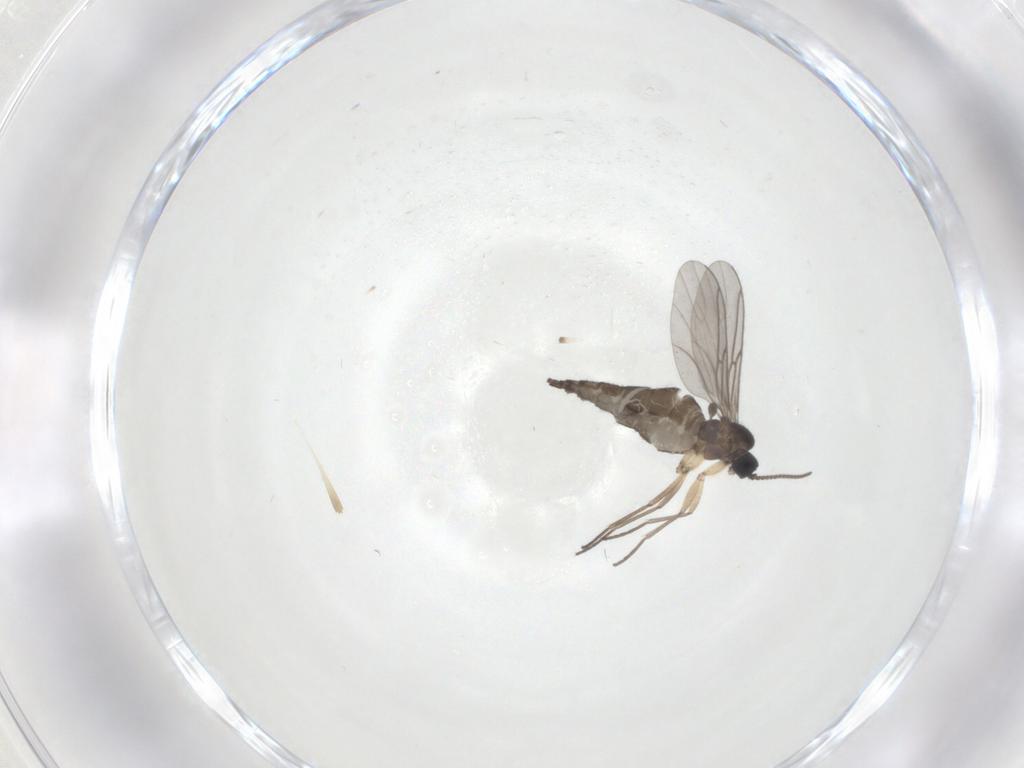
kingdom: Animalia
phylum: Arthropoda
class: Insecta
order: Diptera
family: Sciaridae
